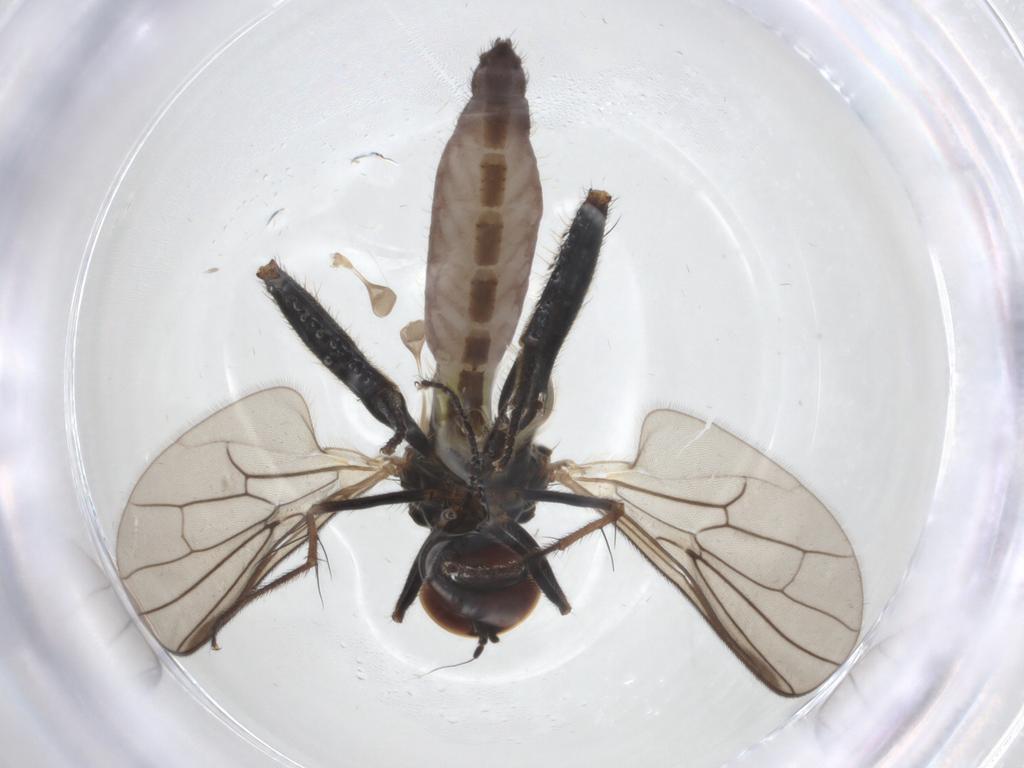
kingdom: Animalia
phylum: Arthropoda
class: Insecta
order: Diptera
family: Hybotidae
